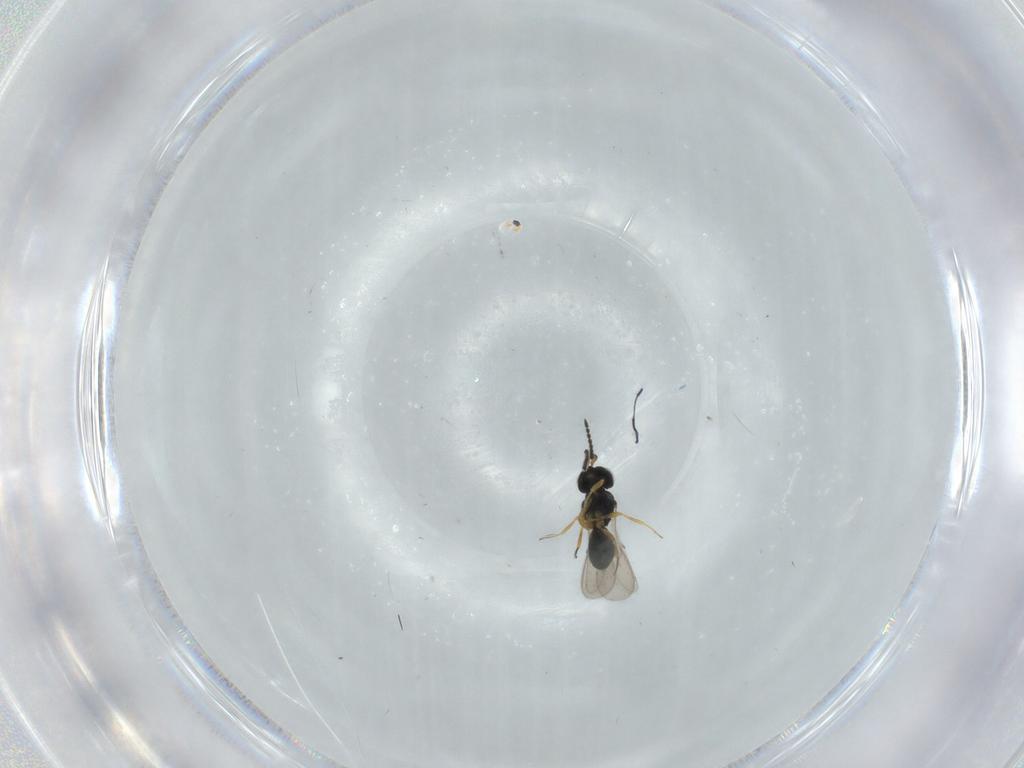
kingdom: Animalia
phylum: Arthropoda
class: Insecta
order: Hymenoptera
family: Scelionidae
